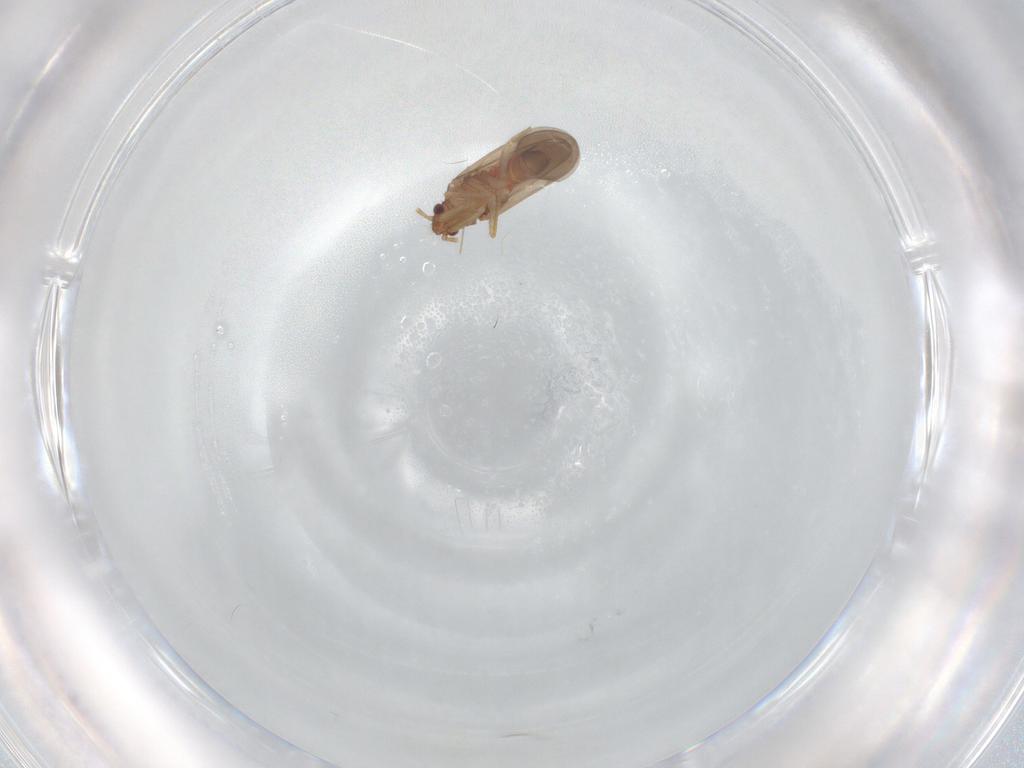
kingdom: Animalia
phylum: Arthropoda
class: Insecta
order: Hemiptera
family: Ceratocombidae
